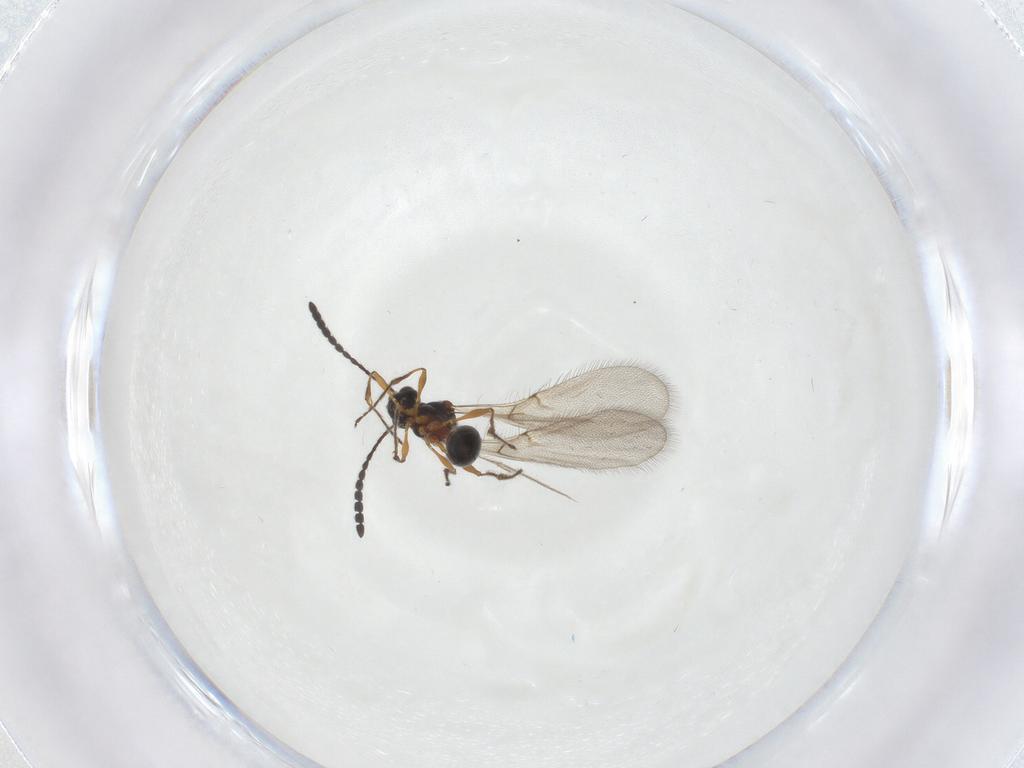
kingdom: Animalia
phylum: Arthropoda
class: Insecta
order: Hymenoptera
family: Diapriidae
